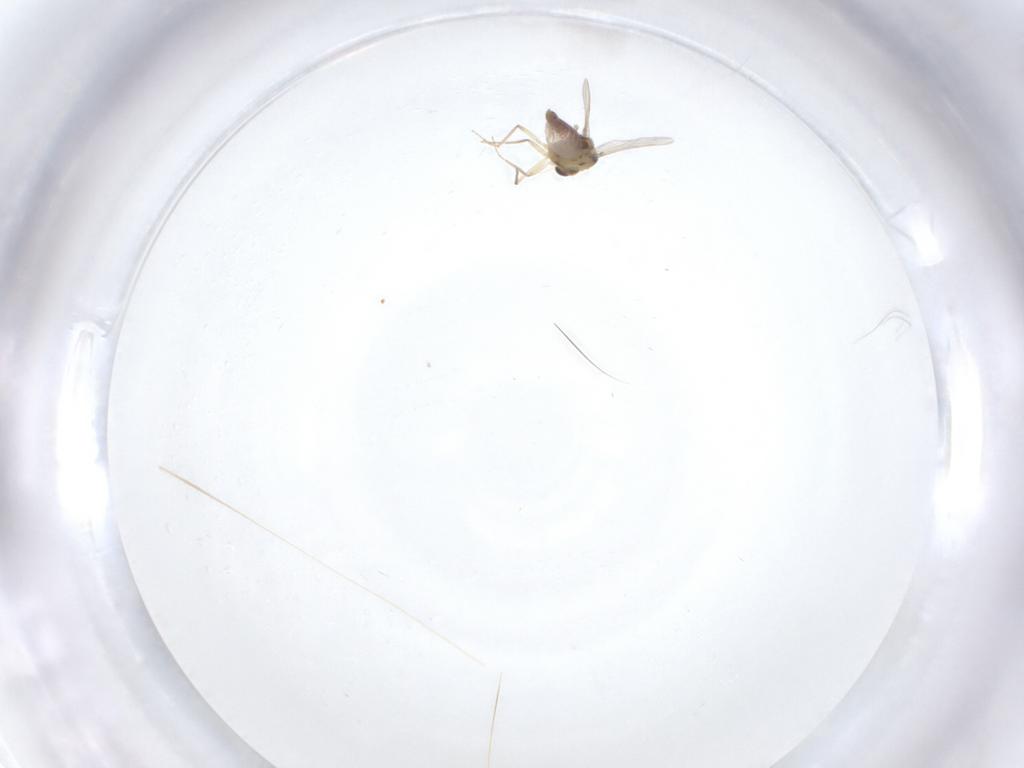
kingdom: Animalia
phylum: Arthropoda
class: Insecta
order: Diptera
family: Chironomidae
